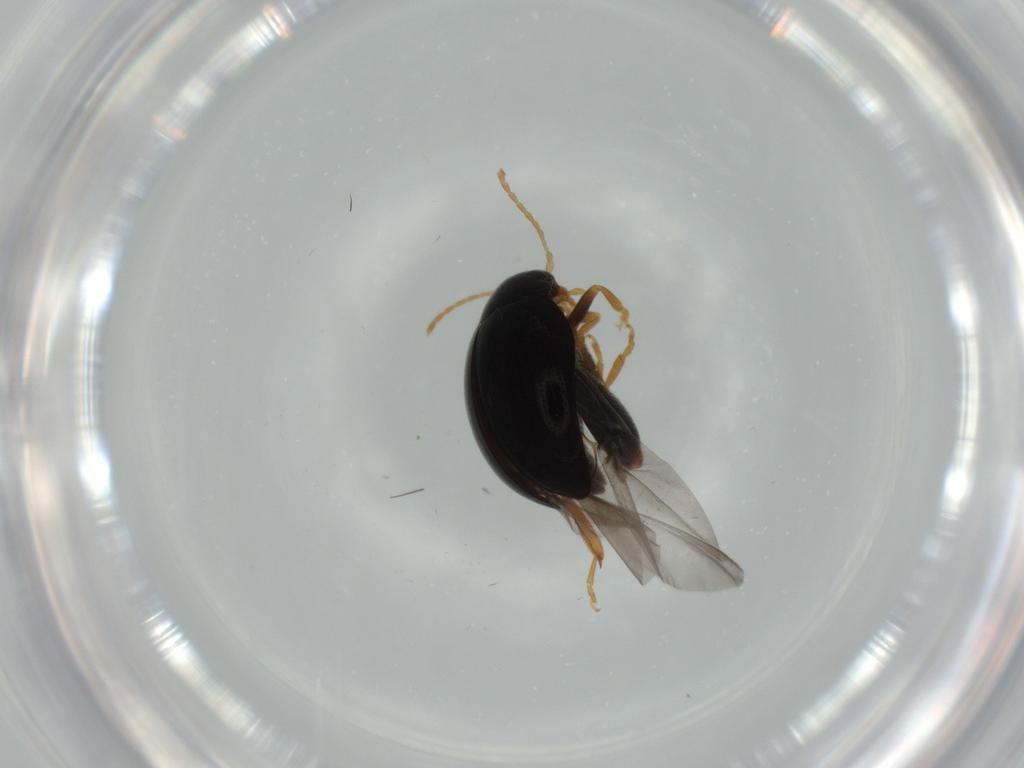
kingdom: Animalia
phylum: Arthropoda
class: Insecta
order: Coleoptera
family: Chrysomelidae
